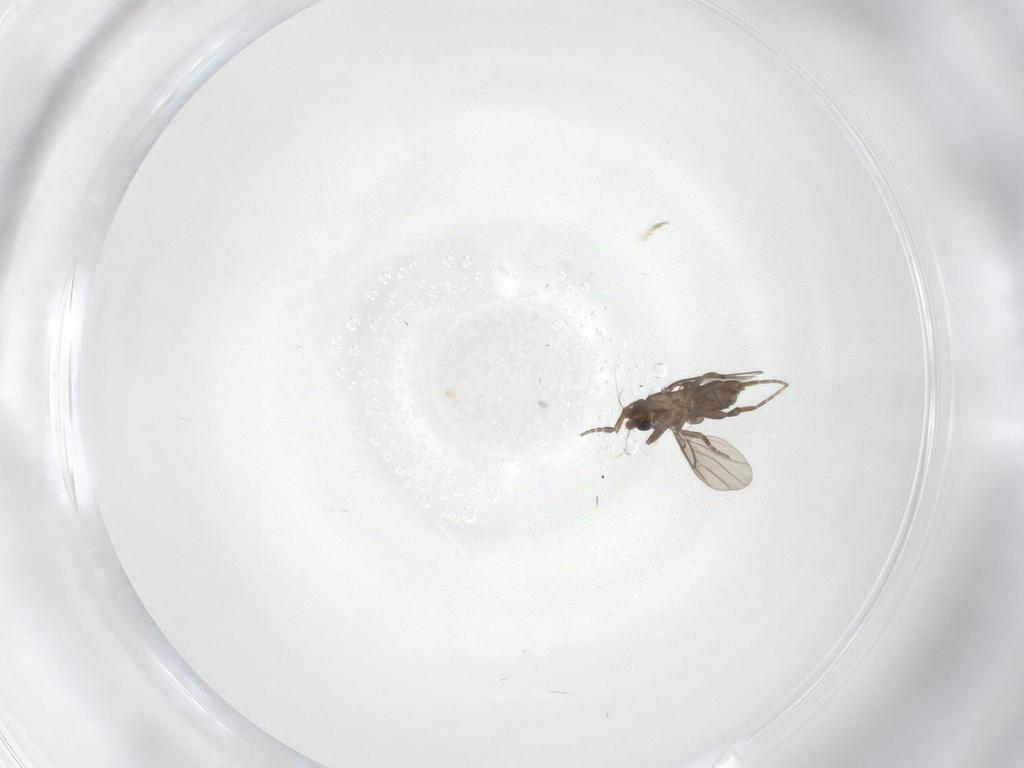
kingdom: Animalia
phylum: Arthropoda
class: Insecta
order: Diptera
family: Phoridae
